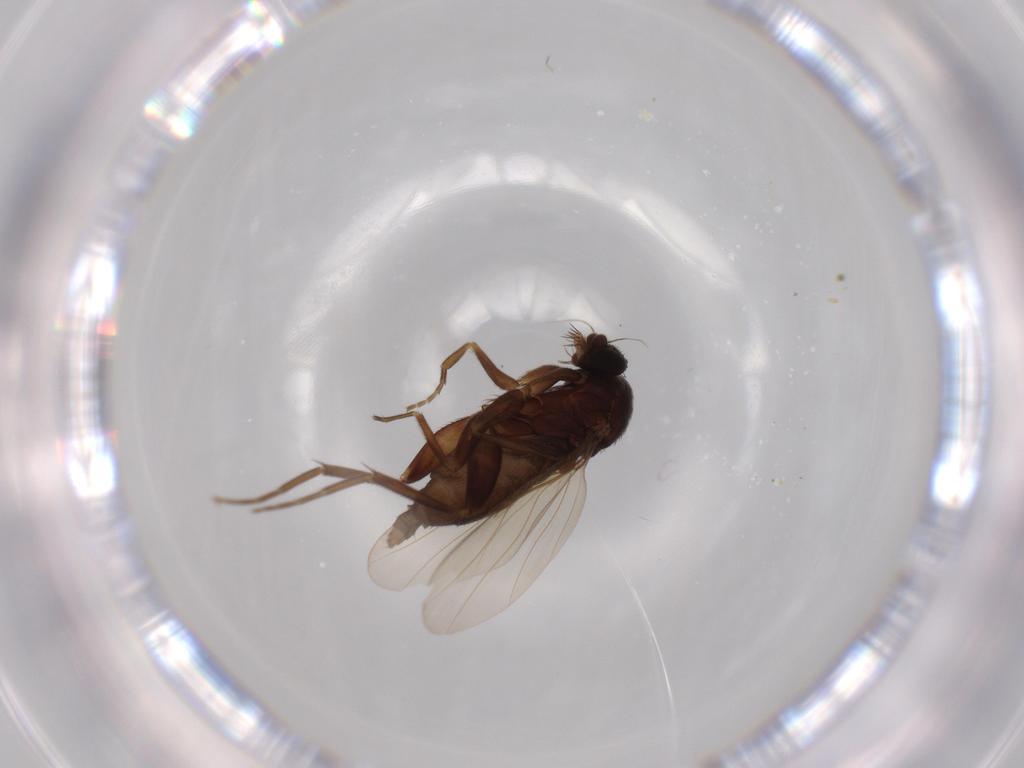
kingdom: Animalia
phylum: Arthropoda
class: Insecta
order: Diptera
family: Phoridae
